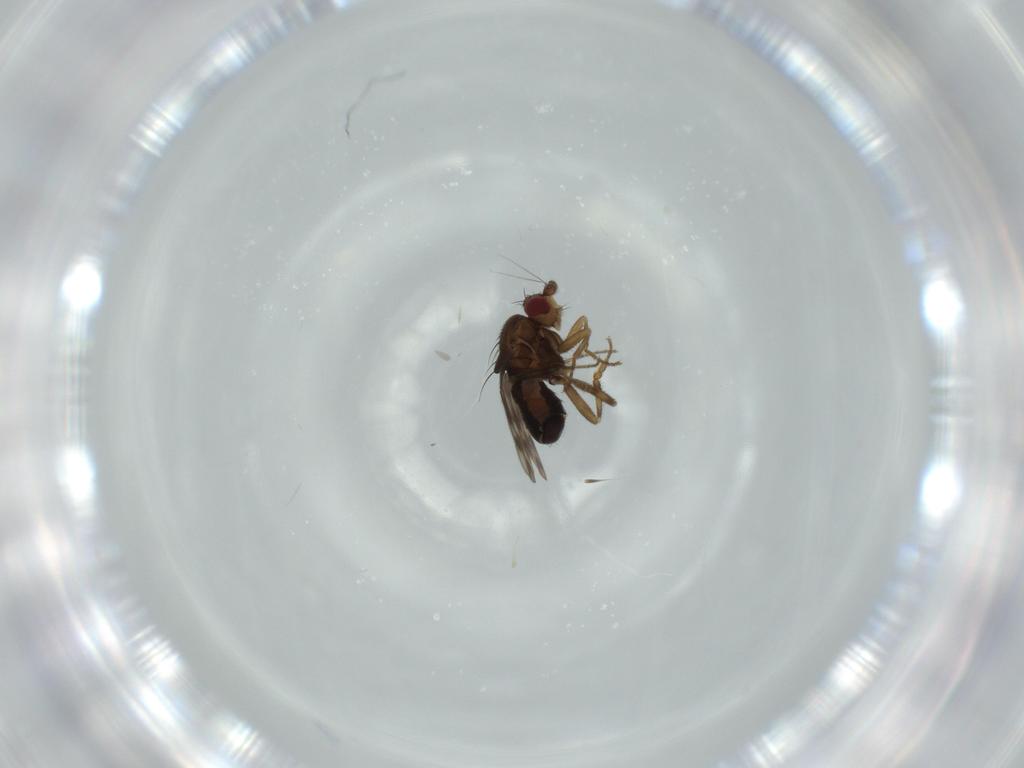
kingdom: Animalia
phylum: Arthropoda
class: Insecta
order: Diptera
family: Sphaeroceridae
